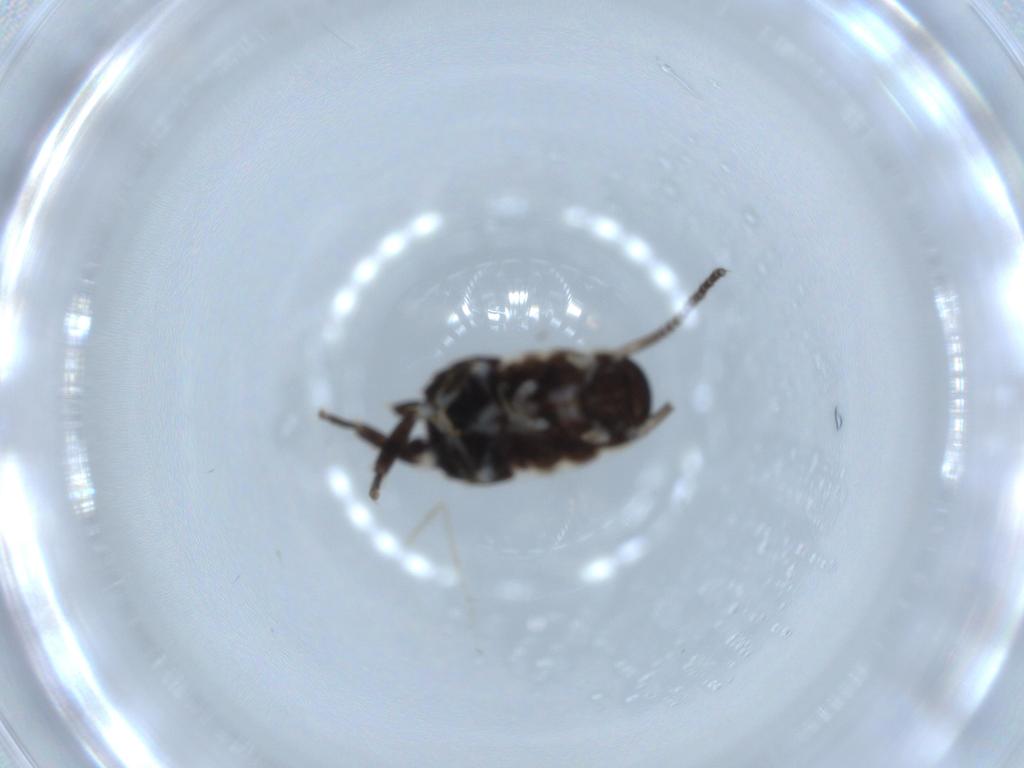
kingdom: Animalia
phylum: Arthropoda
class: Insecta
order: Blattodea
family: Ectobiidae
